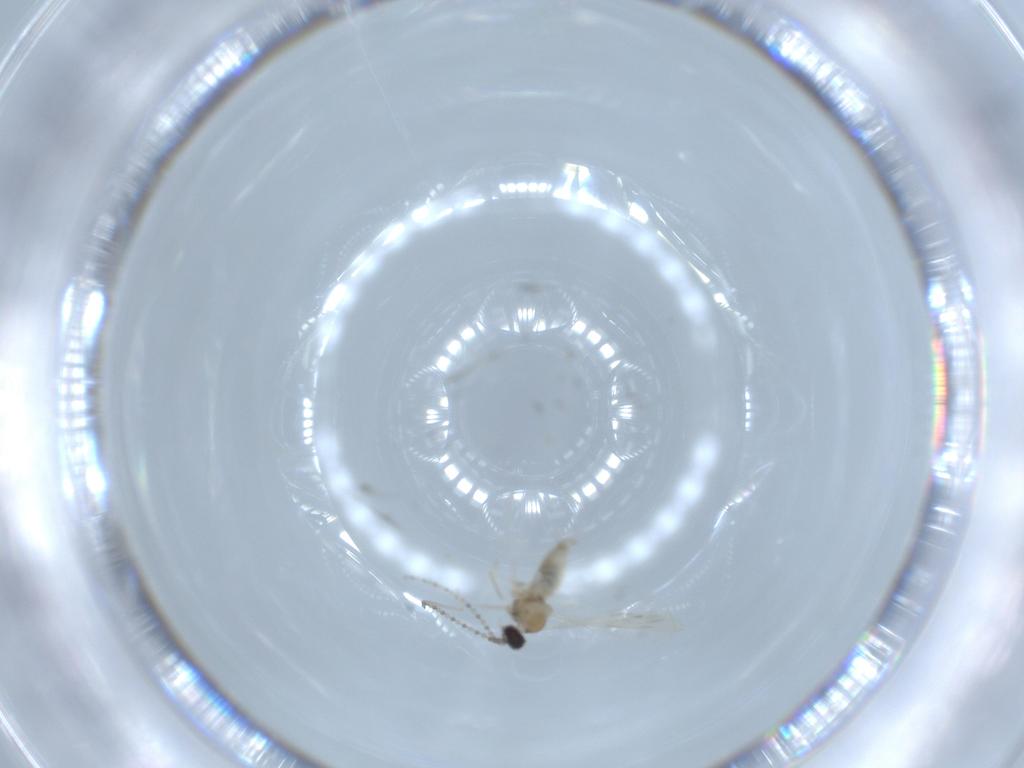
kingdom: Animalia
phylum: Arthropoda
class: Insecta
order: Diptera
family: Cecidomyiidae
